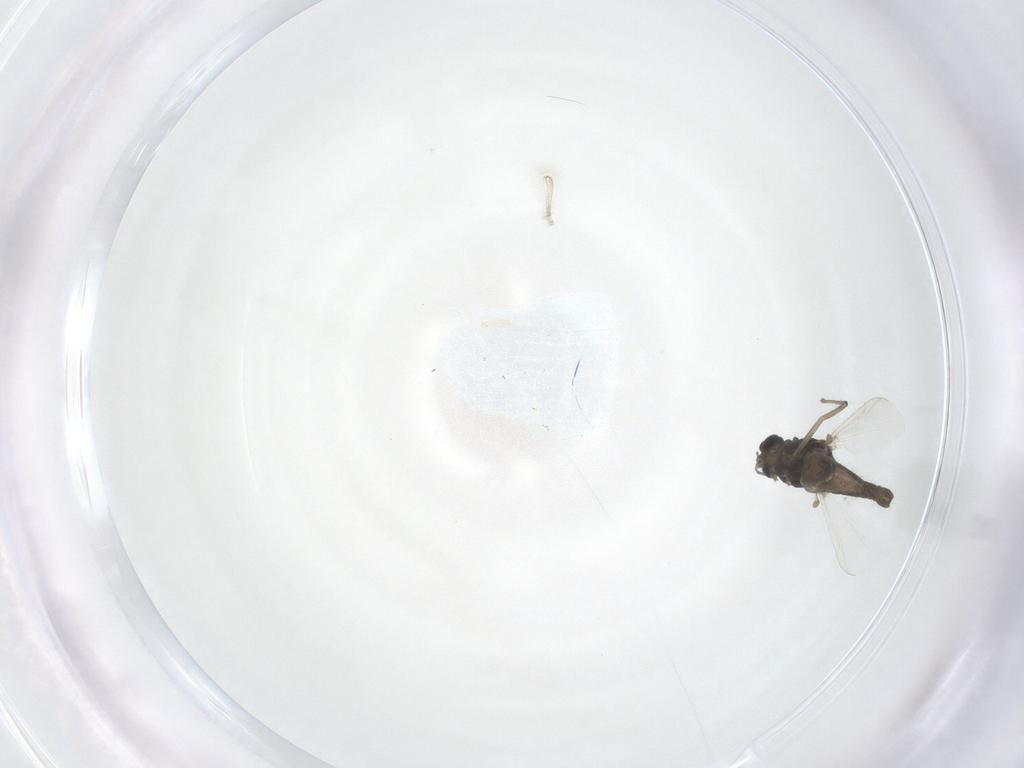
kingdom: Animalia
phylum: Arthropoda
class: Insecta
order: Diptera
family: Chironomidae
